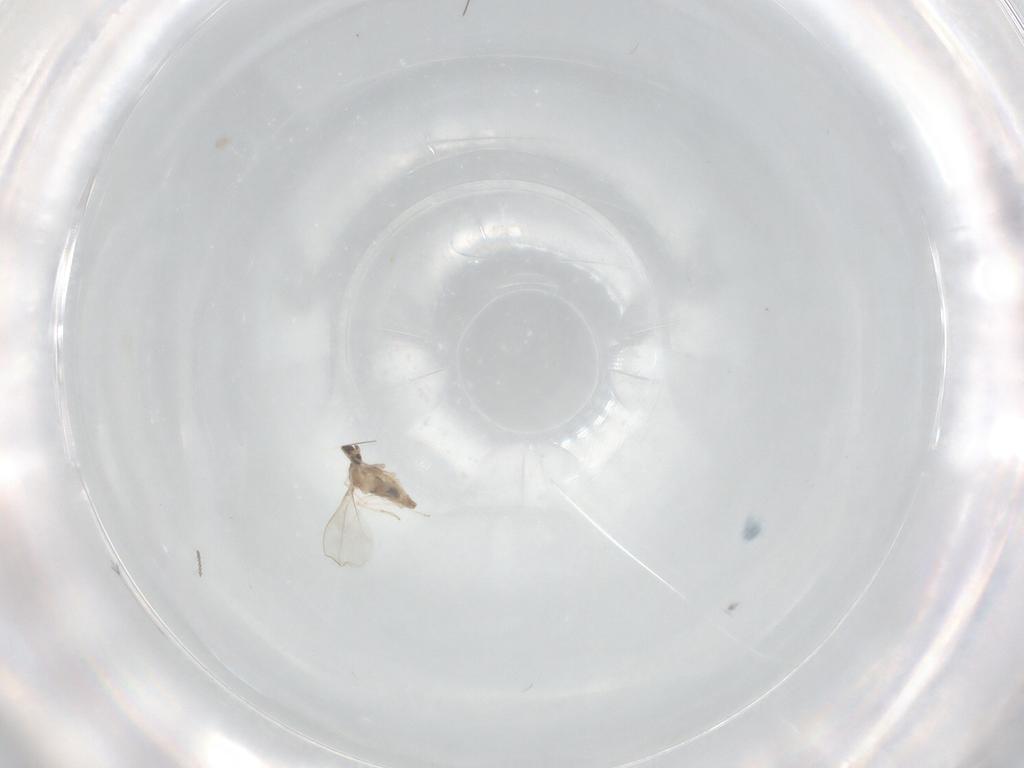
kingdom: Animalia
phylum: Arthropoda
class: Insecta
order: Diptera
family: Cecidomyiidae
